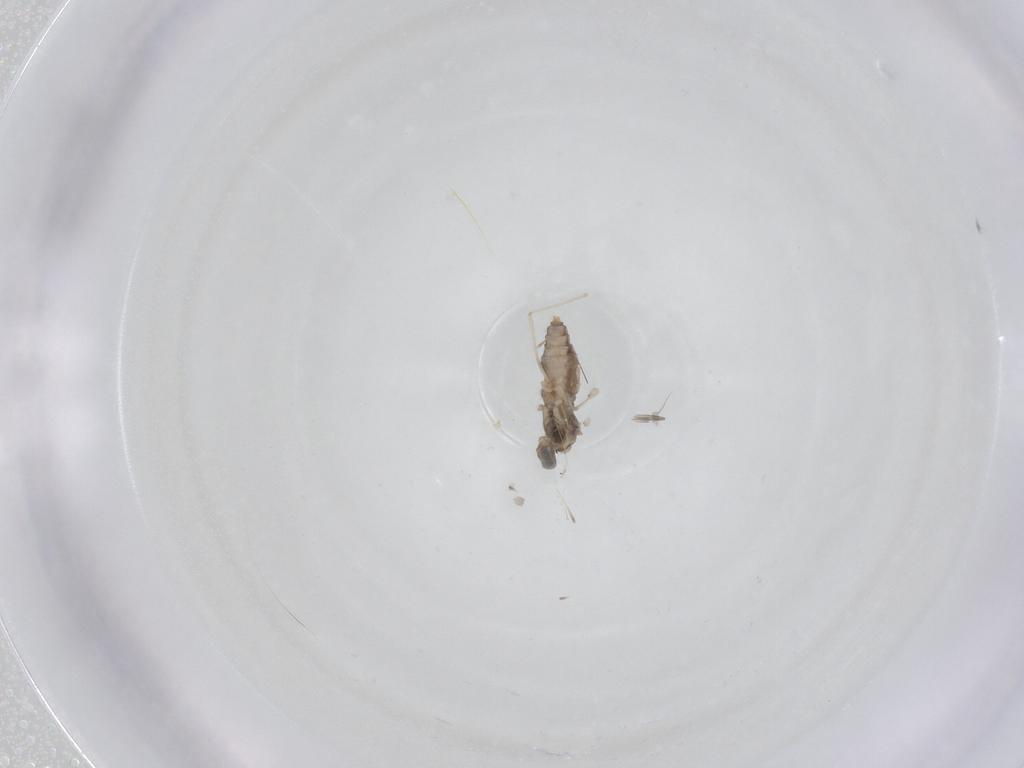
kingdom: Animalia
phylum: Arthropoda
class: Insecta
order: Diptera
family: Cecidomyiidae
